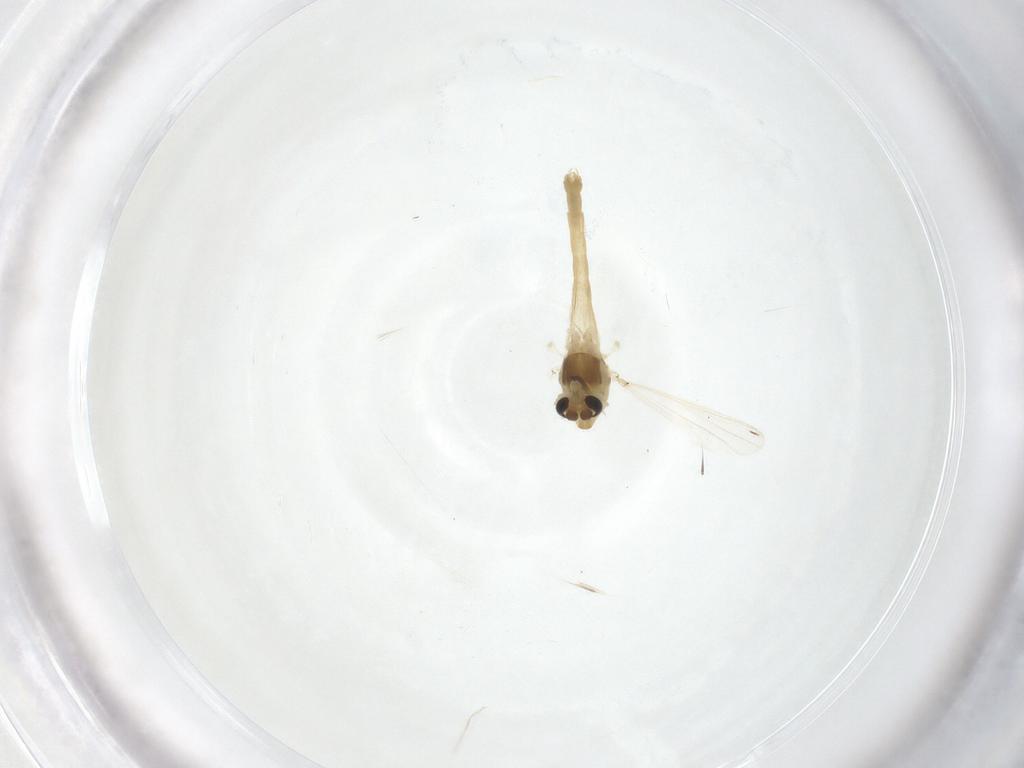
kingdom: Animalia
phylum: Arthropoda
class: Insecta
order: Diptera
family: Chironomidae
